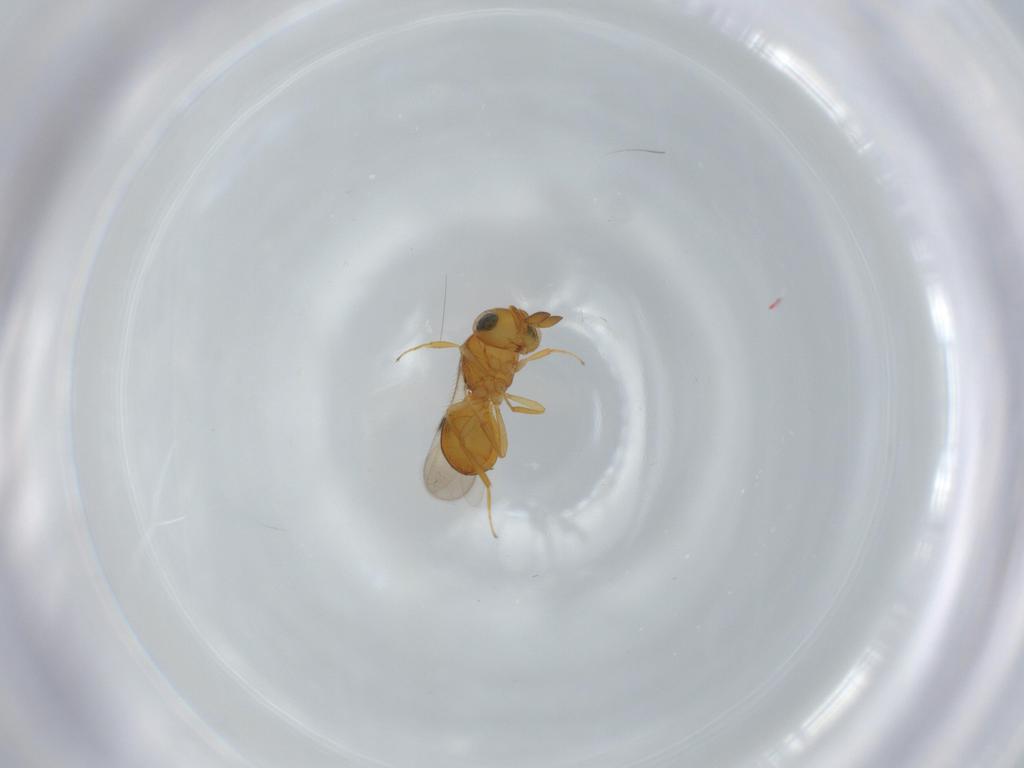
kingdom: Animalia
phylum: Arthropoda
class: Insecta
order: Hymenoptera
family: Scelionidae
